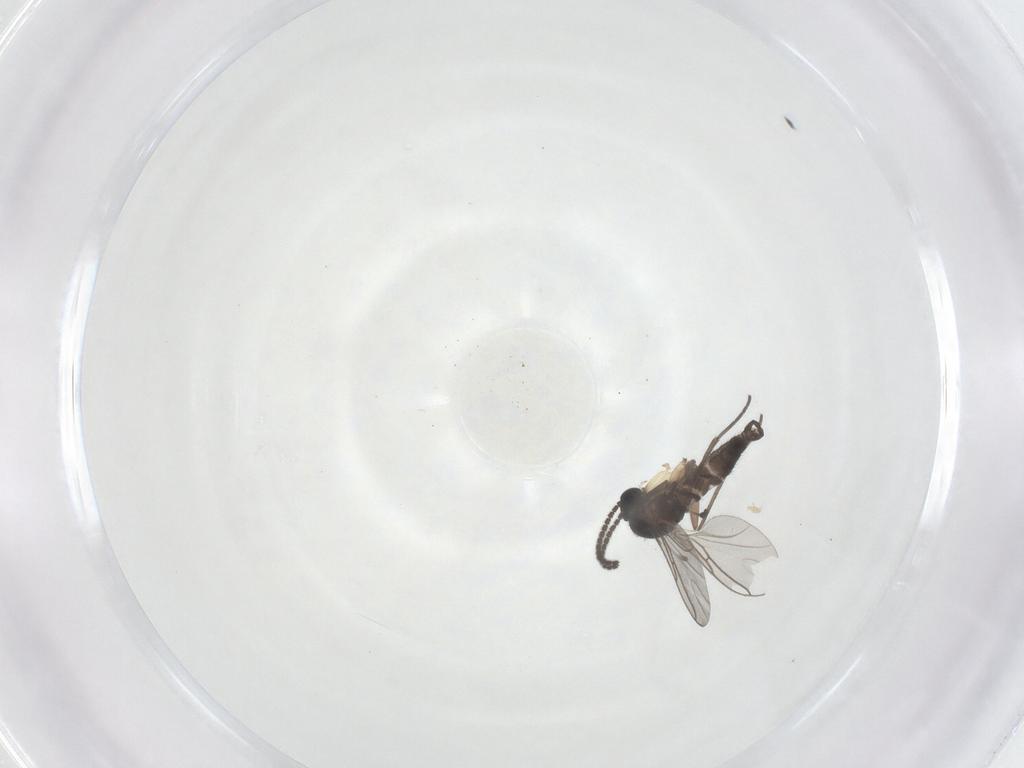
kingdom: Animalia
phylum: Arthropoda
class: Insecta
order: Diptera
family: Sciaridae
